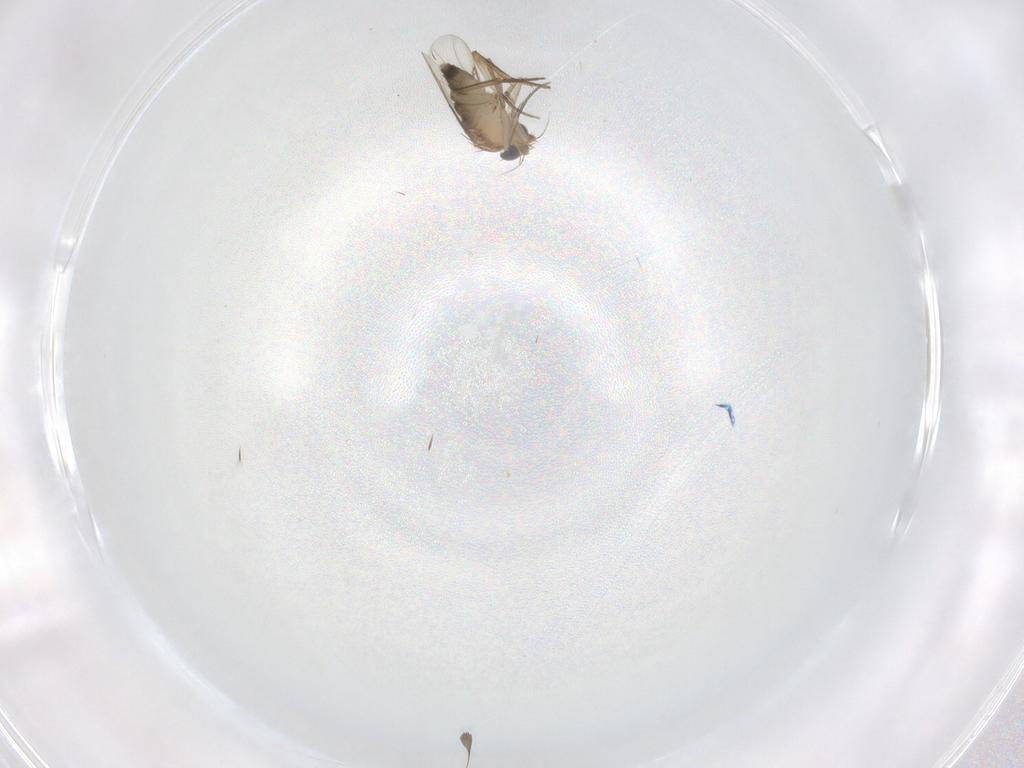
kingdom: Animalia
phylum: Arthropoda
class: Insecta
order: Diptera
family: Phoridae
